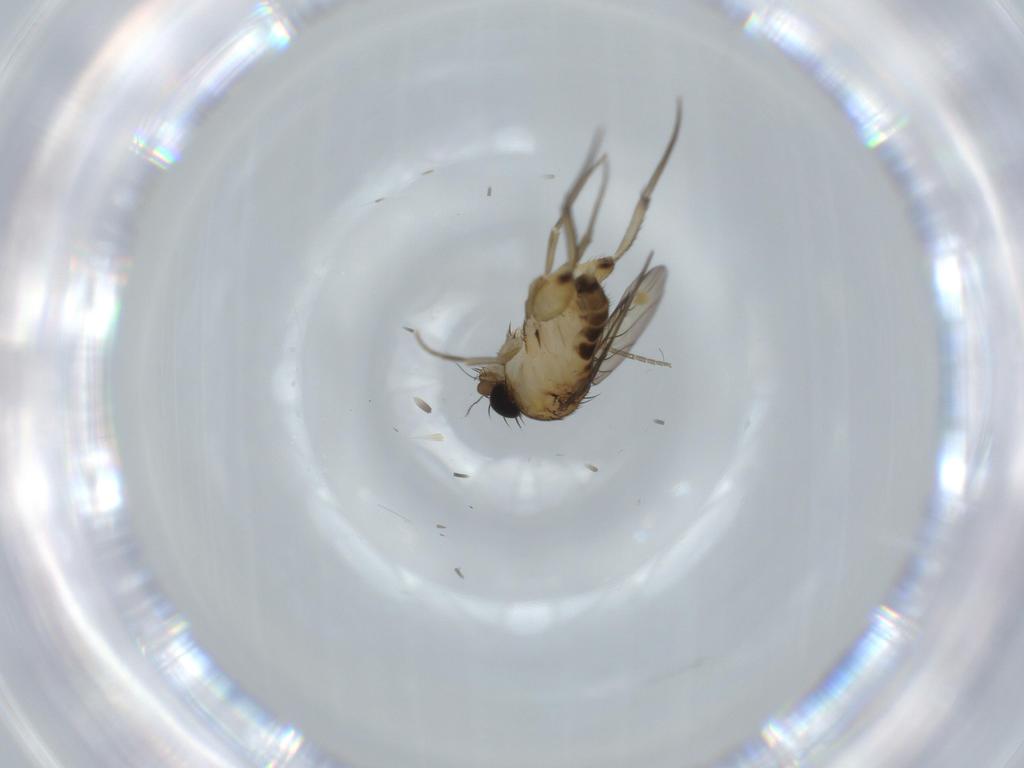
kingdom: Animalia
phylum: Arthropoda
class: Insecta
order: Diptera
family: Phoridae
